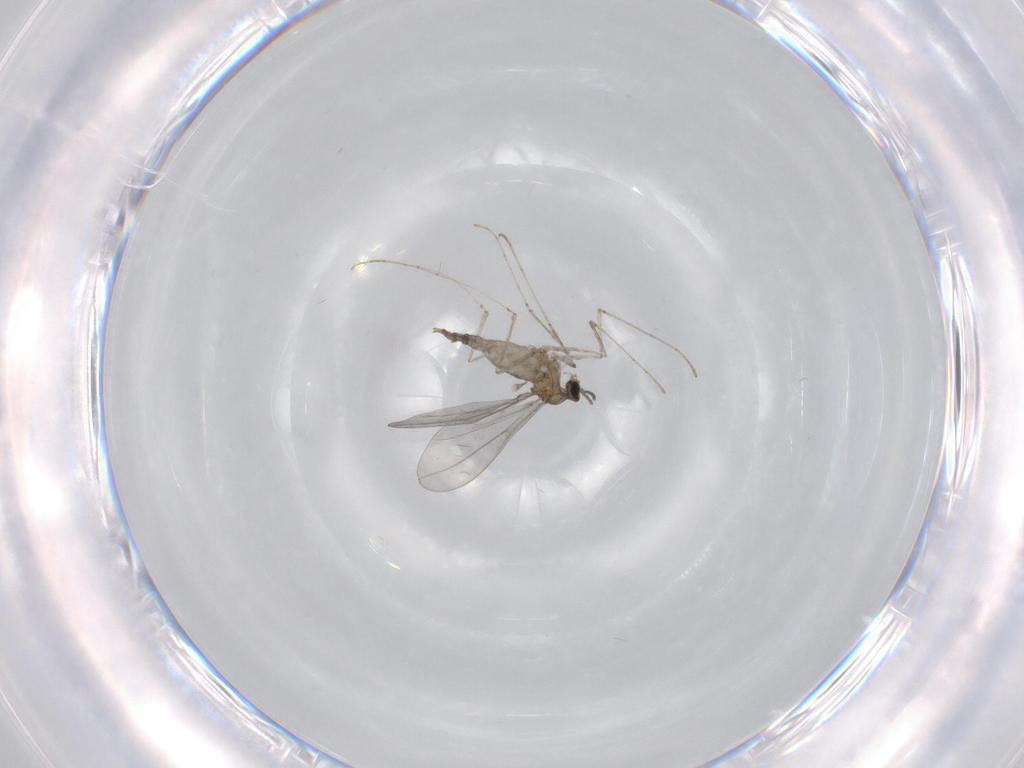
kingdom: Animalia
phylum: Arthropoda
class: Insecta
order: Diptera
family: Cecidomyiidae
